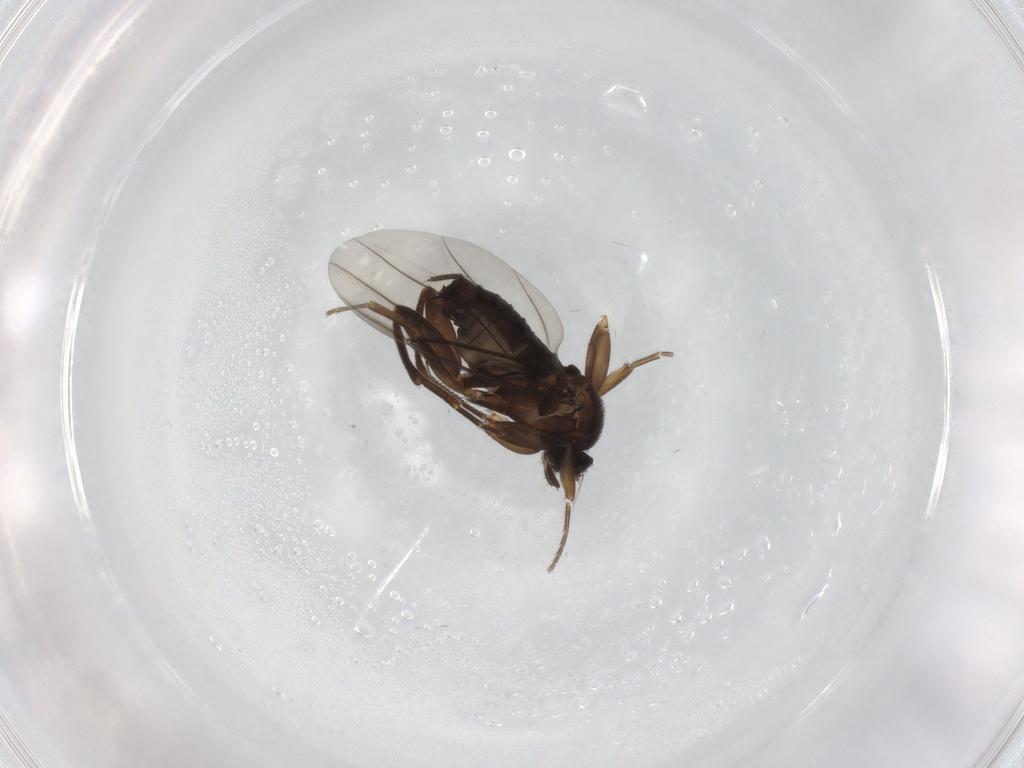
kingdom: Animalia
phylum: Arthropoda
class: Insecta
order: Diptera
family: Cecidomyiidae
